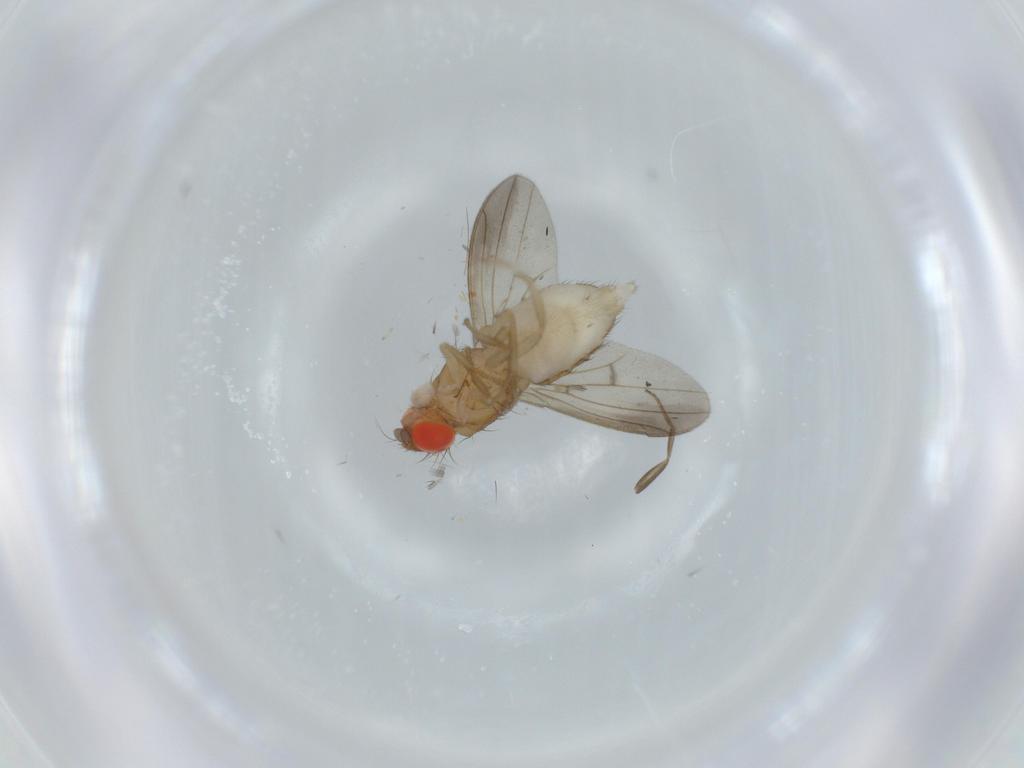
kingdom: Animalia
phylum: Arthropoda
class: Insecta
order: Diptera
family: Drosophilidae
